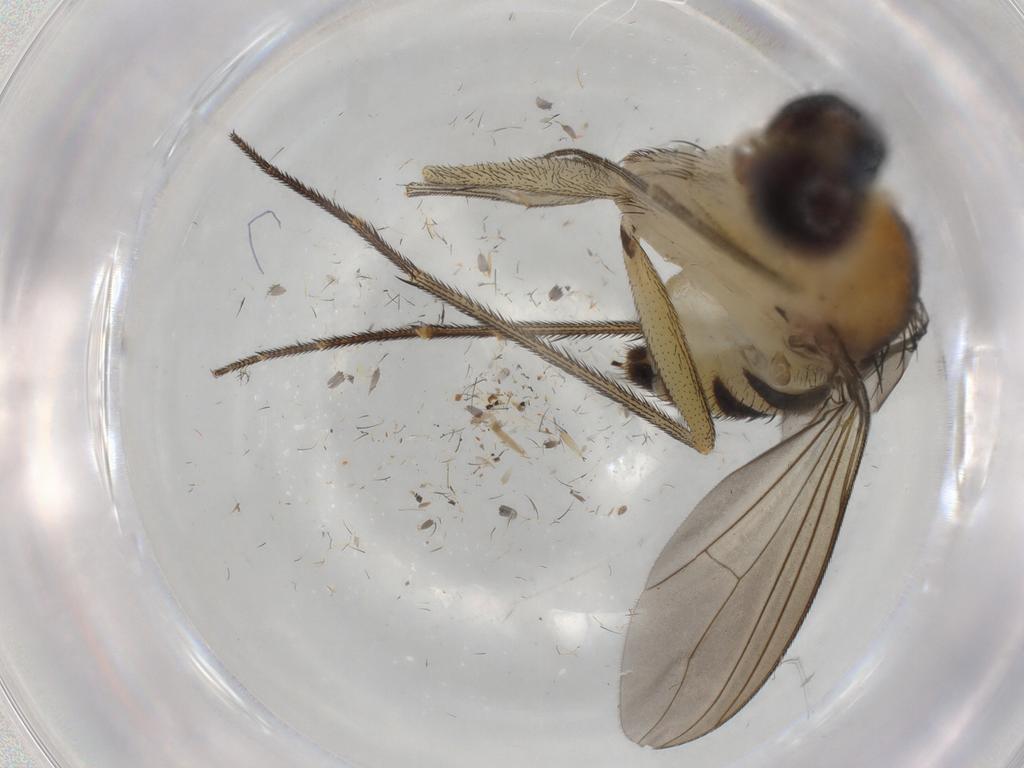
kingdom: Animalia
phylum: Arthropoda
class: Insecta
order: Diptera
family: Dolichopodidae
